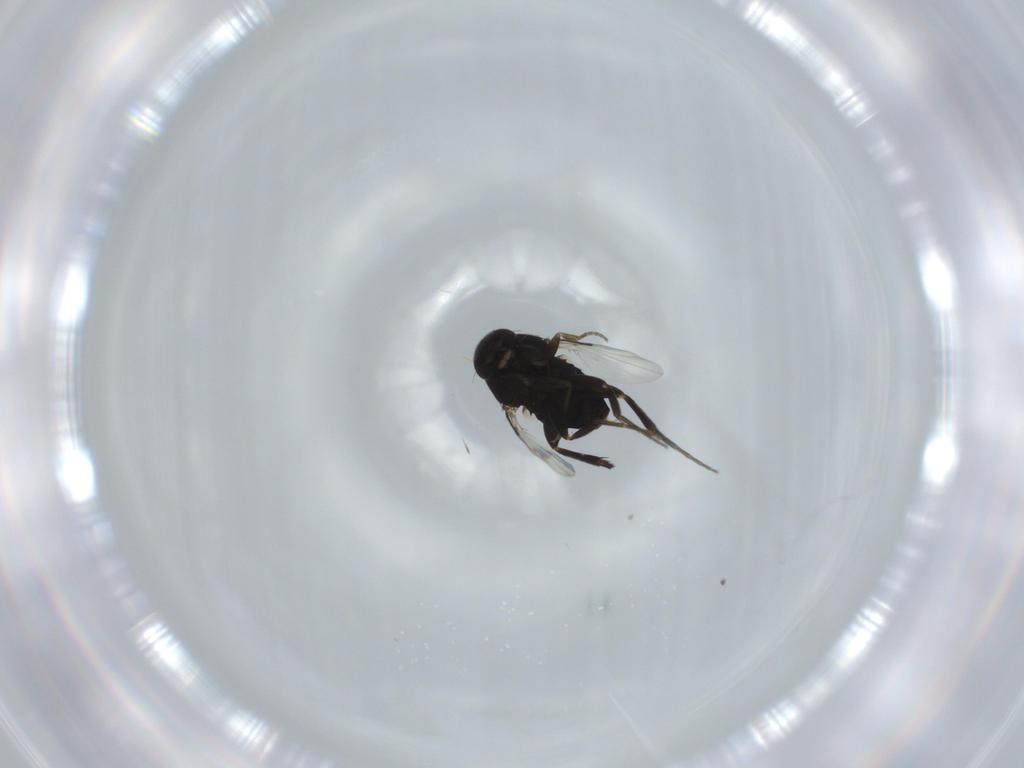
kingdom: Animalia
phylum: Arthropoda
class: Insecta
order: Diptera
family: Phoridae
